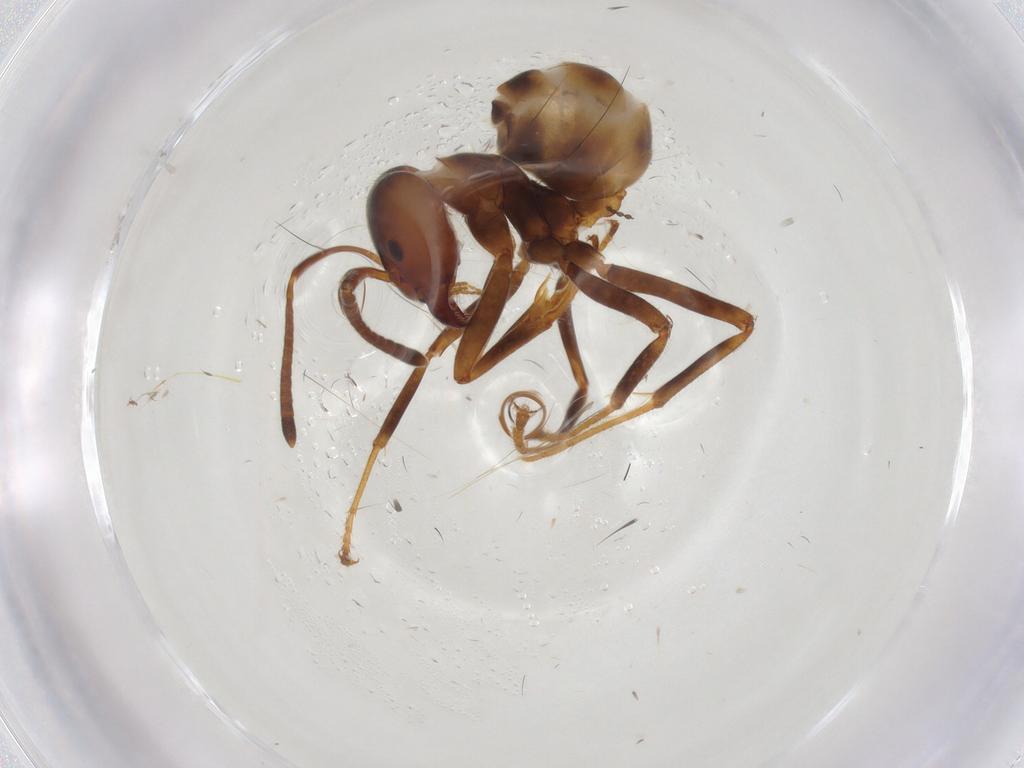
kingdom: Animalia
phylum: Arthropoda
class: Insecta
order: Hymenoptera
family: Formicidae
